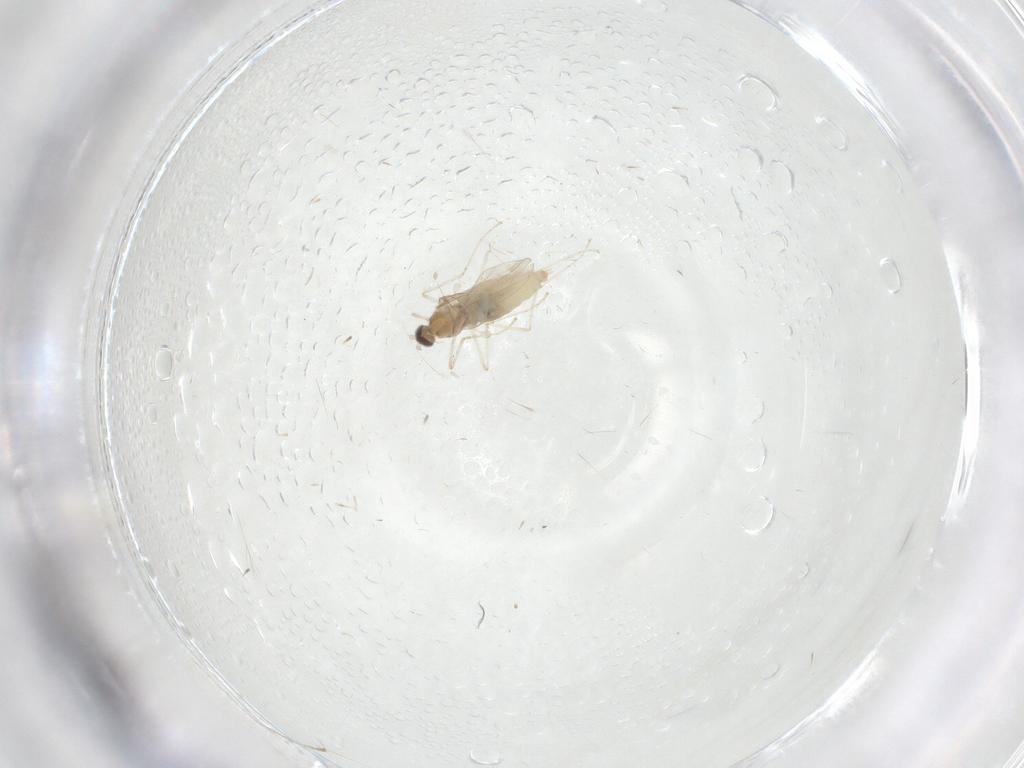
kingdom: Animalia
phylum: Arthropoda
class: Insecta
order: Diptera
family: Cecidomyiidae
